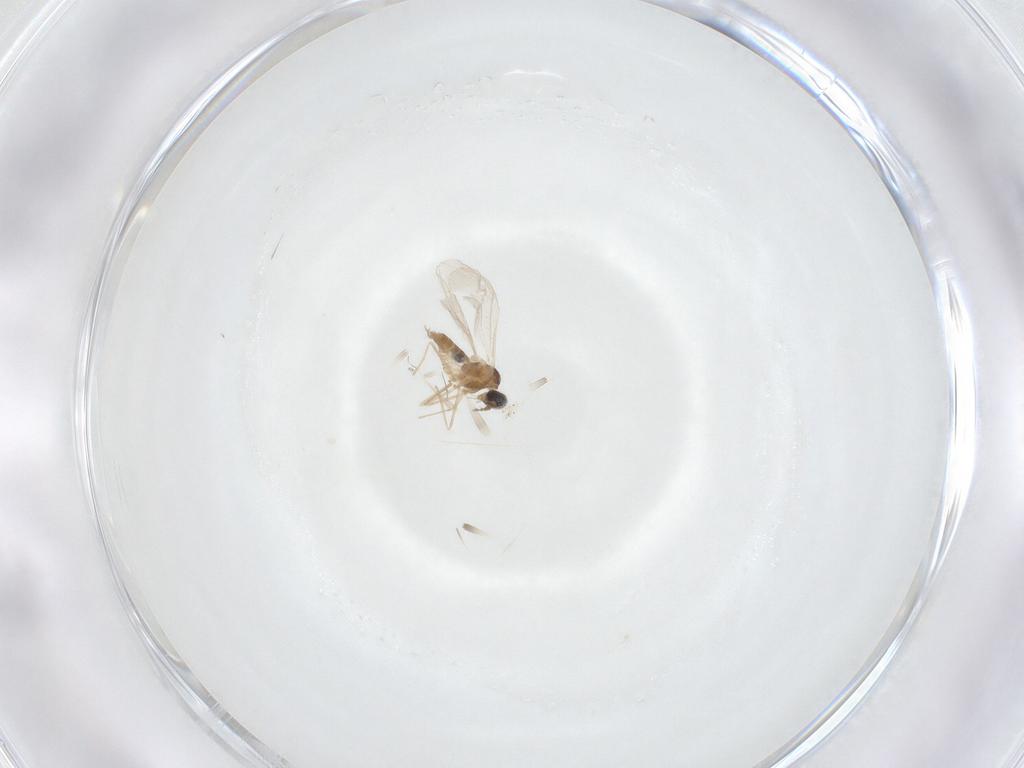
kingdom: Animalia
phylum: Arthropoda
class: Insecta
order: Diptera
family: Cecidomyiidae
